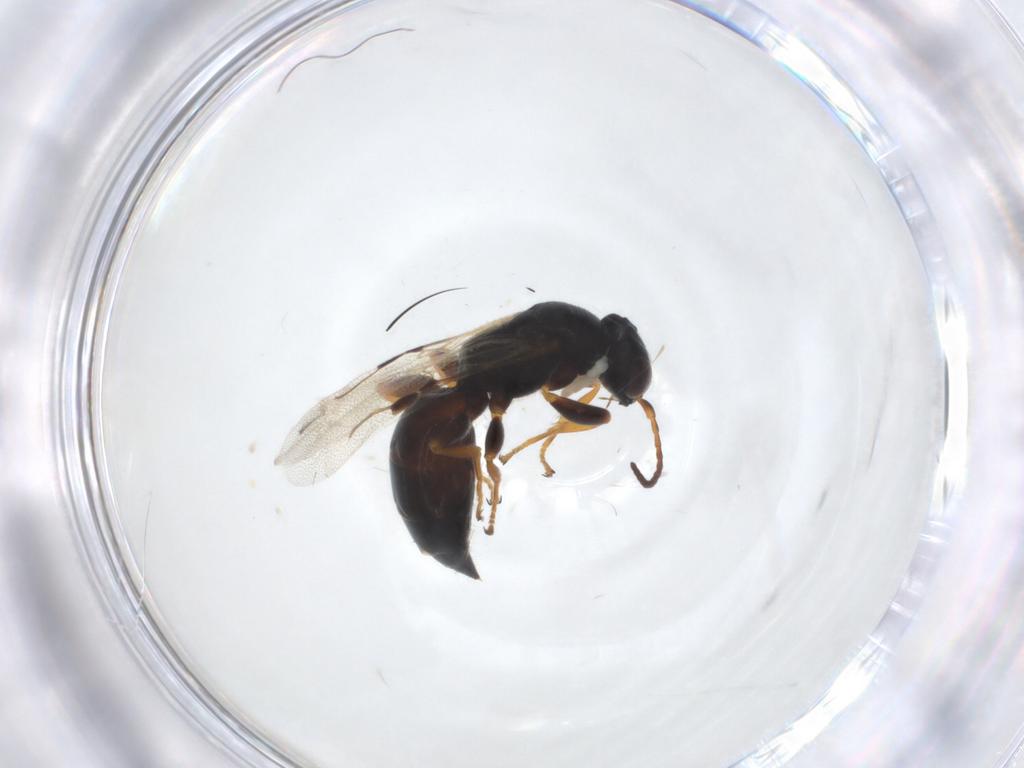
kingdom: Animalia
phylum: Arthropoda
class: Insecta
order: Hymenoptera
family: Bethylidae
